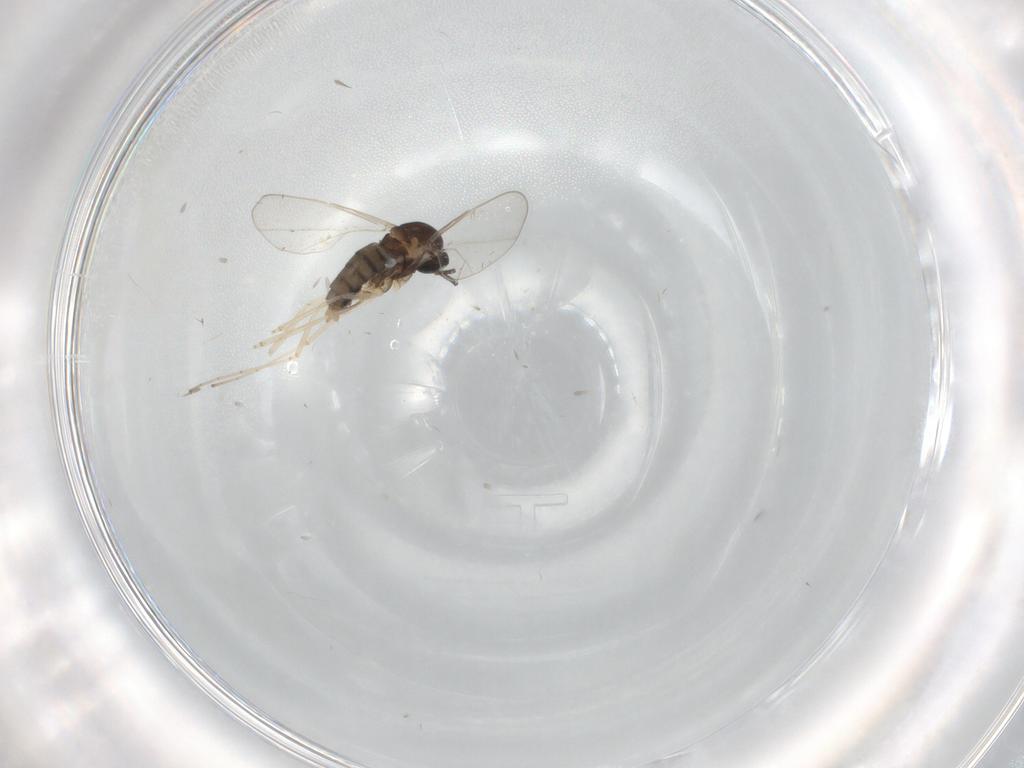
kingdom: Animalia
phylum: Arthropoda
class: Insecta
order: Diptera
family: Cecidomyiidae
